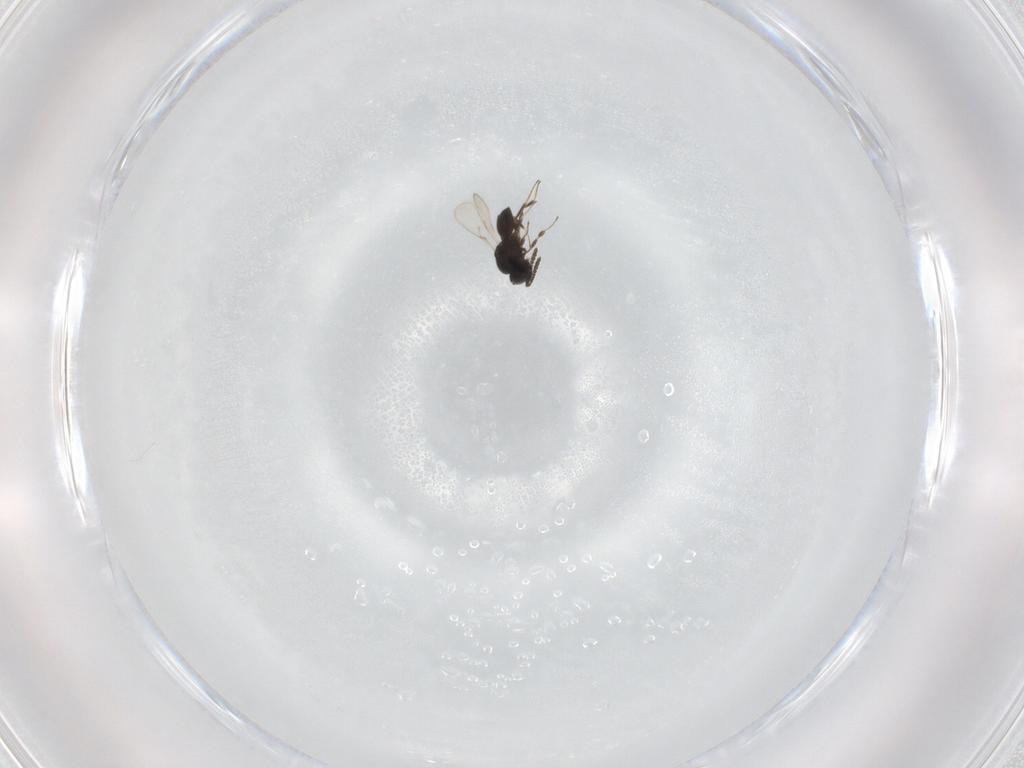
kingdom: Animalia
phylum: Arthropoda
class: Insecta
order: Hymenoptera
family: Scelionidae
